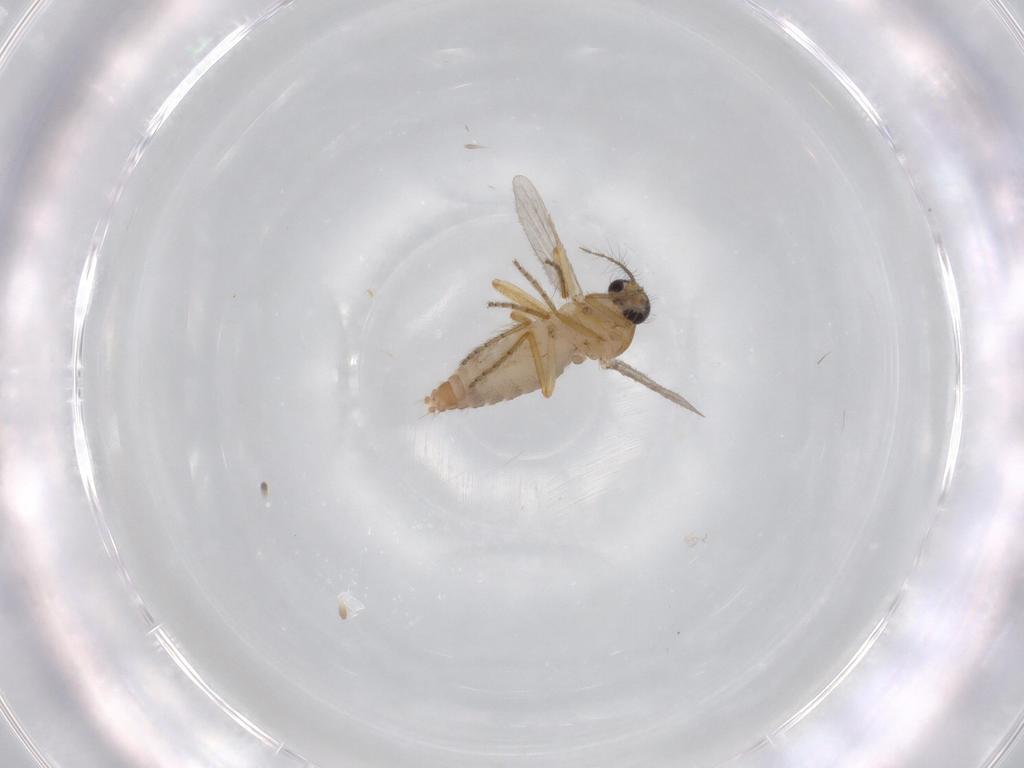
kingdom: Animalia
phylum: Arthropoda
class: Insecta
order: Diptera
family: Ceratopogonidae
